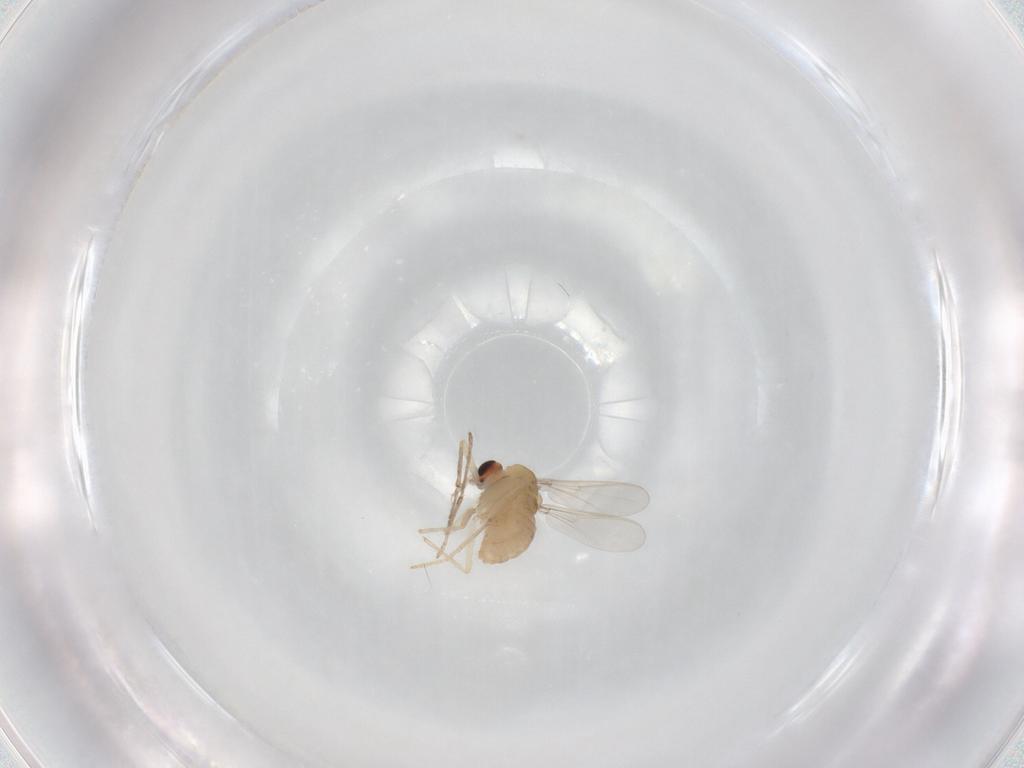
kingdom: Animalia
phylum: Arthropoda
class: Insecta
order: Diptera
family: Chironomidae
